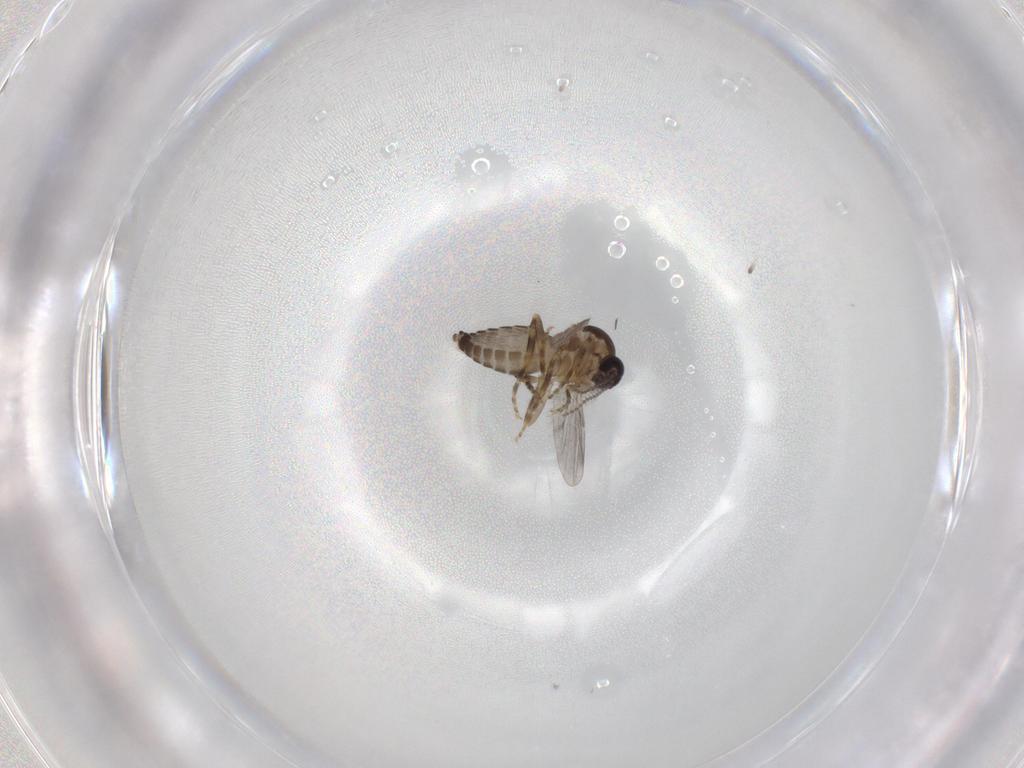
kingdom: Animalia
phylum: Arthropoda
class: Insecta
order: Diptera
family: Ceratopogonidae
